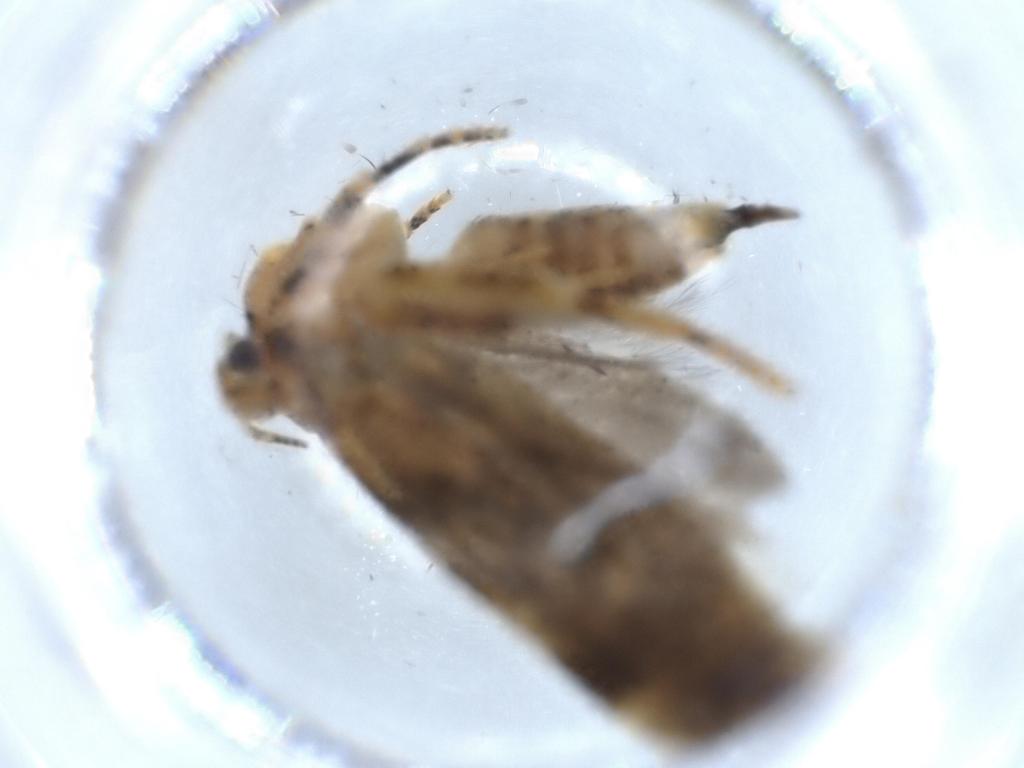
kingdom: Animalia
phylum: Arthropoda
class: Insecta
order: Lepidoptera
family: Gelechiidae
